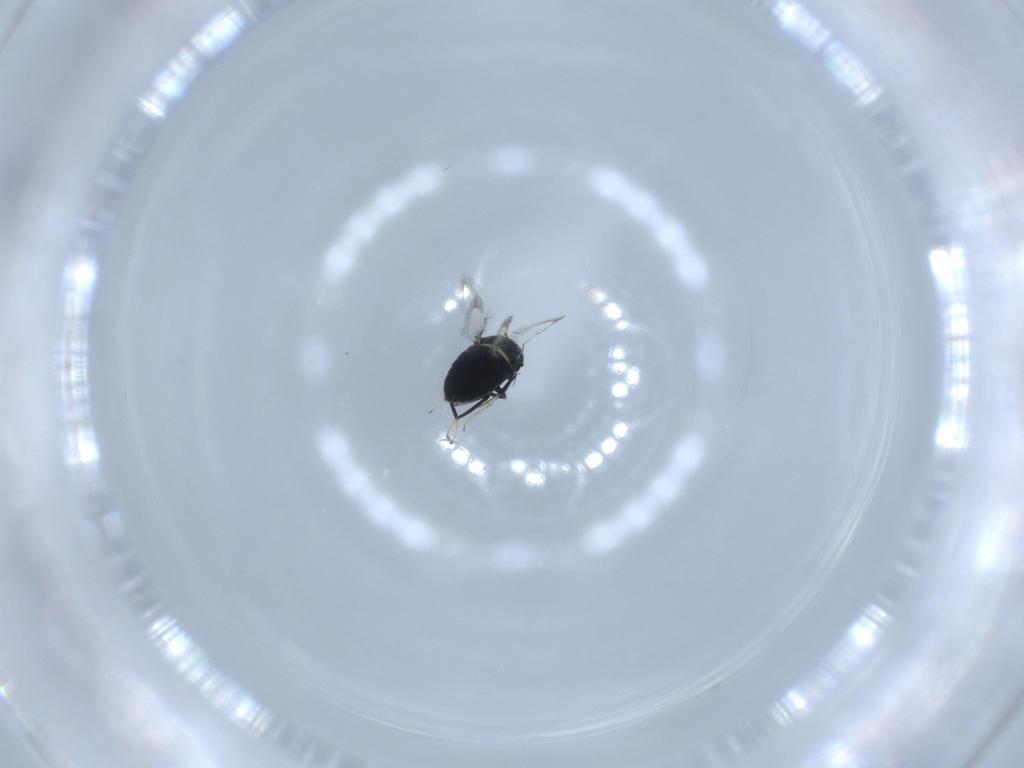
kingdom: Animalia
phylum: Arthropoda
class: Insecta
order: Hymenoptera
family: Signiphoridae
